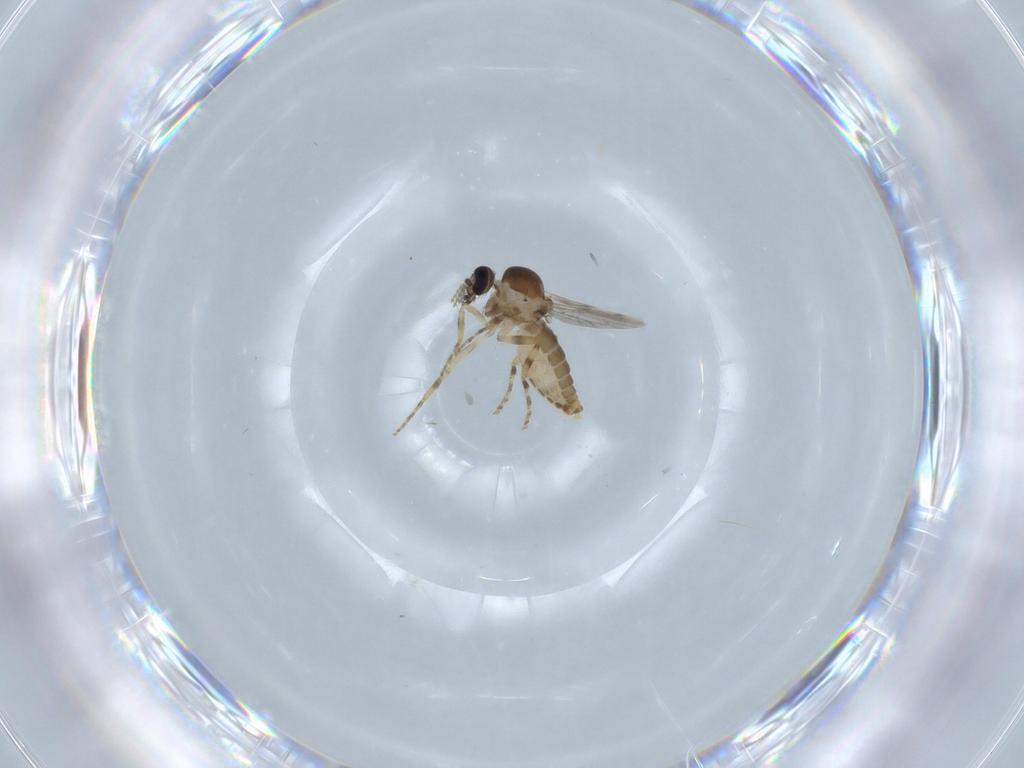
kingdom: Animalia
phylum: Arthropoda
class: Insecta
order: Diptera
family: Ceratopogonidae
